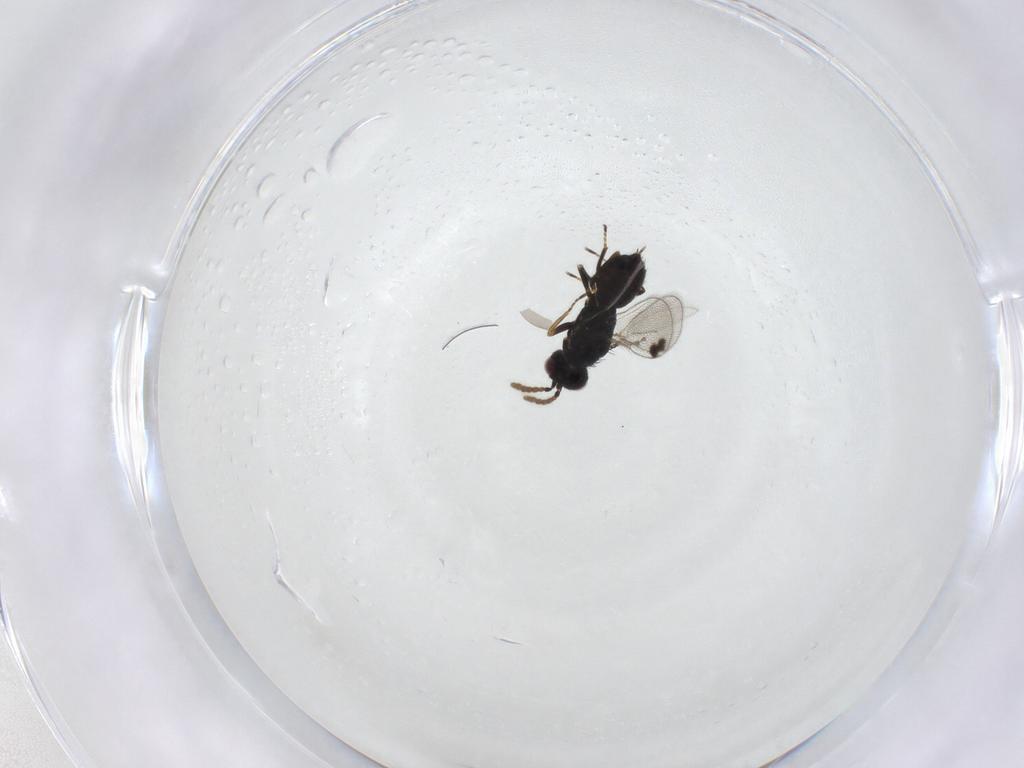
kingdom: Animalia
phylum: Arthropoda
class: Insecta
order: Hymenoptera
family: Eulophidae
